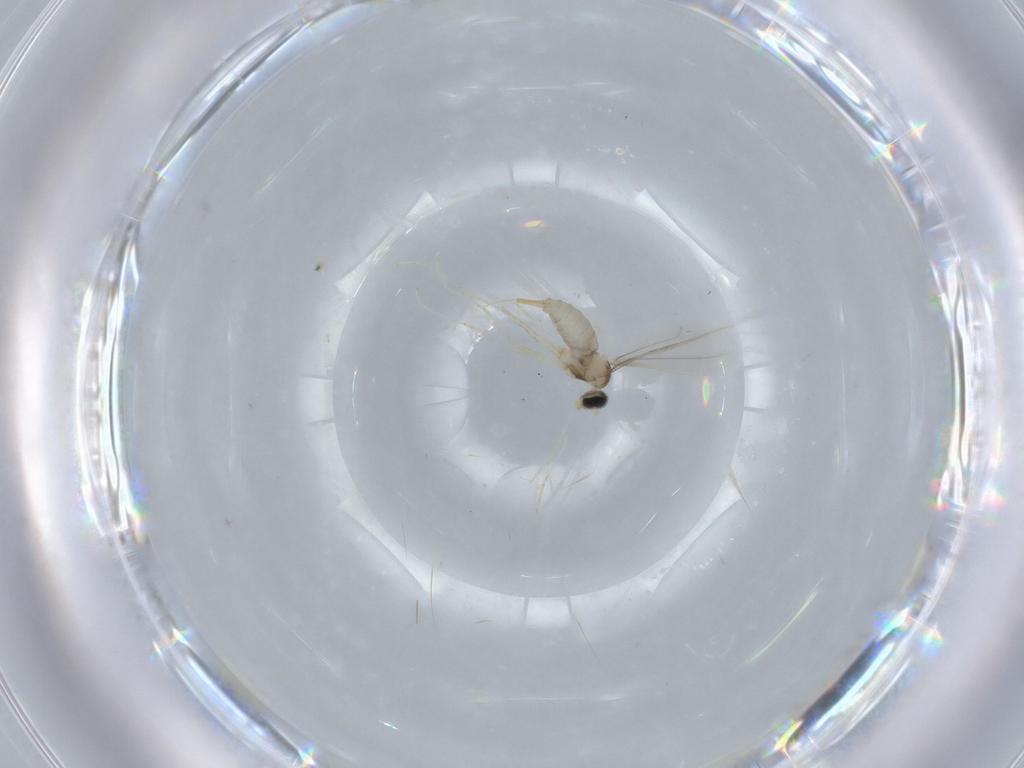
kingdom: Animalia
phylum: Arthropoda
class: Insecta
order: Diptera
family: Cecidomyiidae
